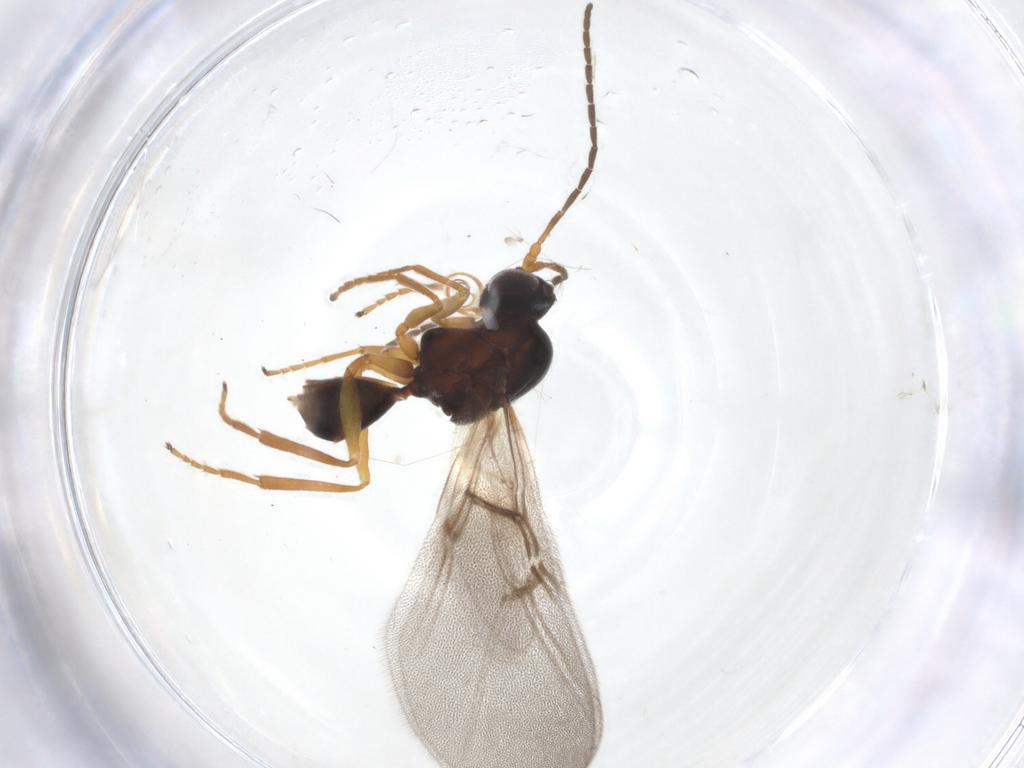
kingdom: Animalia
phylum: Arthropoda
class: Insecta
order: Hymenoptera
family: Cynipidae
